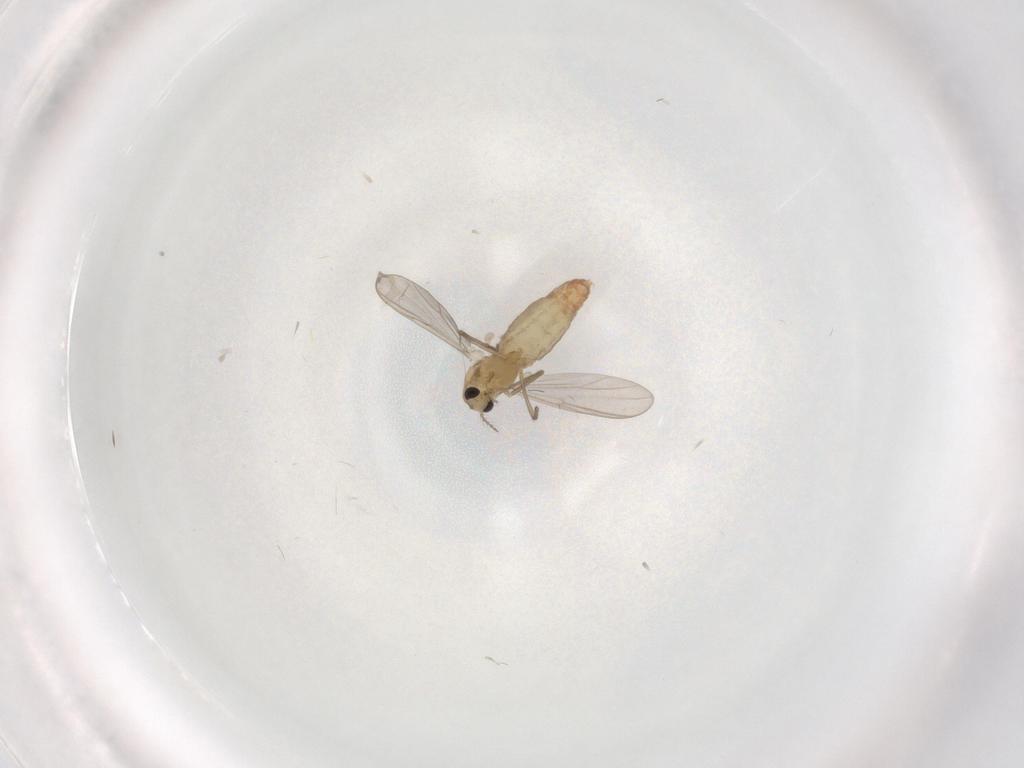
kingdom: Animalia
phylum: Arthropoda
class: Insecta
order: Diptera
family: Chironomidae
